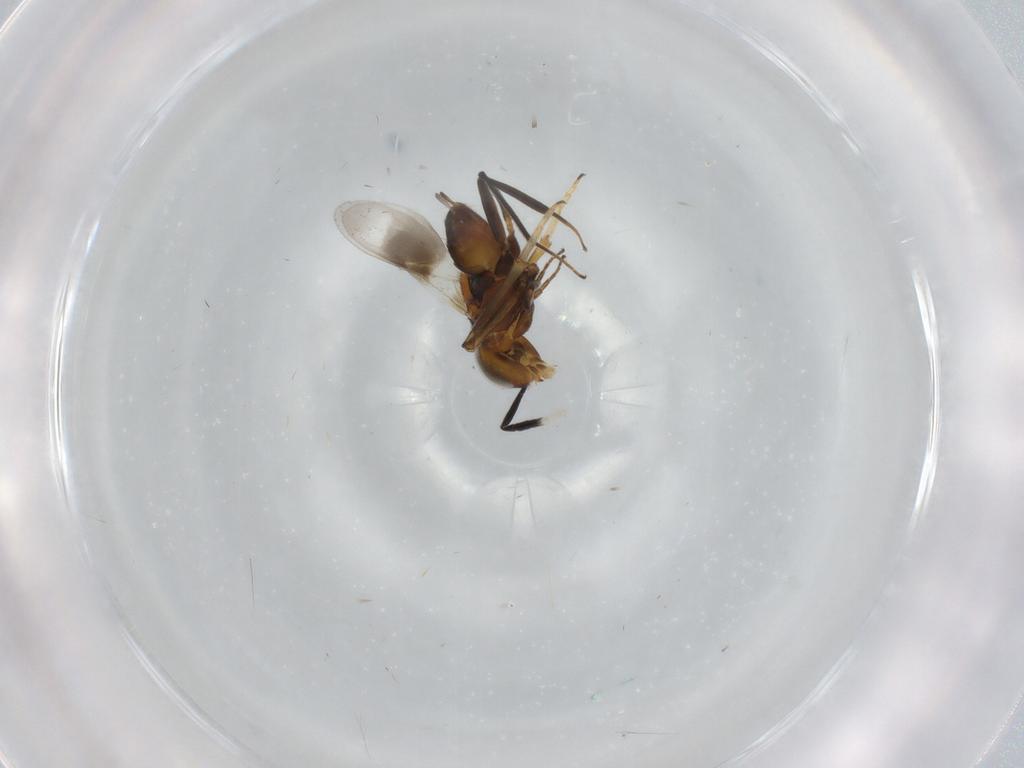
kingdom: Animalia
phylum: Arthropoda
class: Insecta
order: Hymenoptera
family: Encyrtidae
